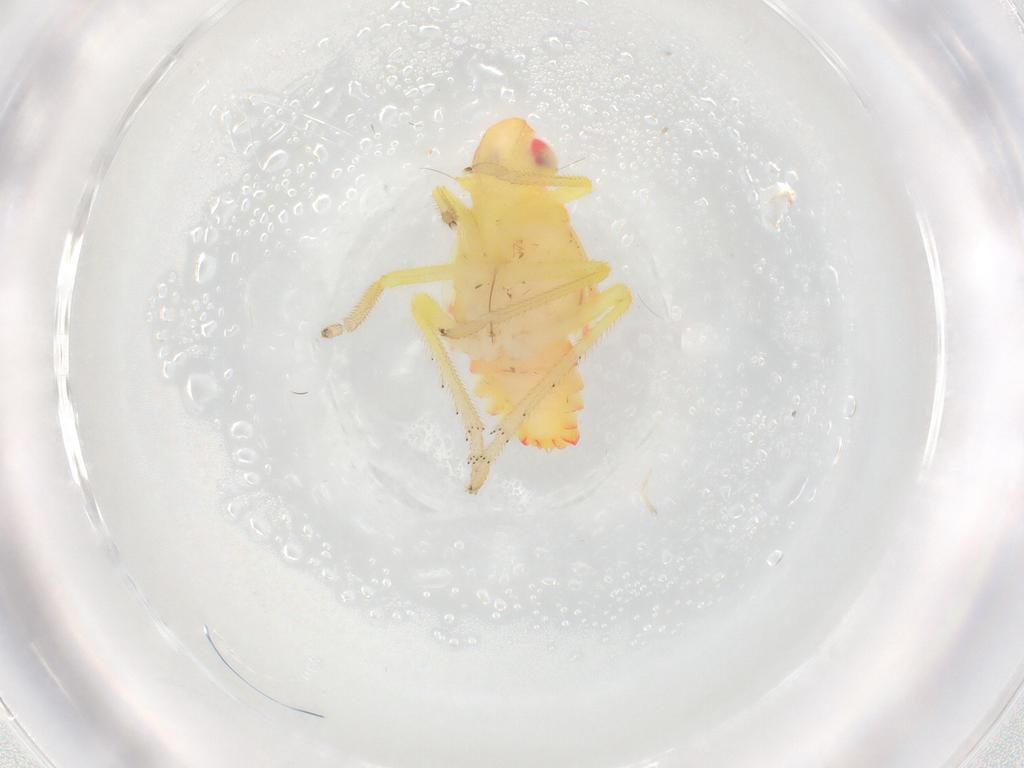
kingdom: Animalia
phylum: Arthropoda
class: Insecta
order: Hemiptera
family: Tropiduchidae
